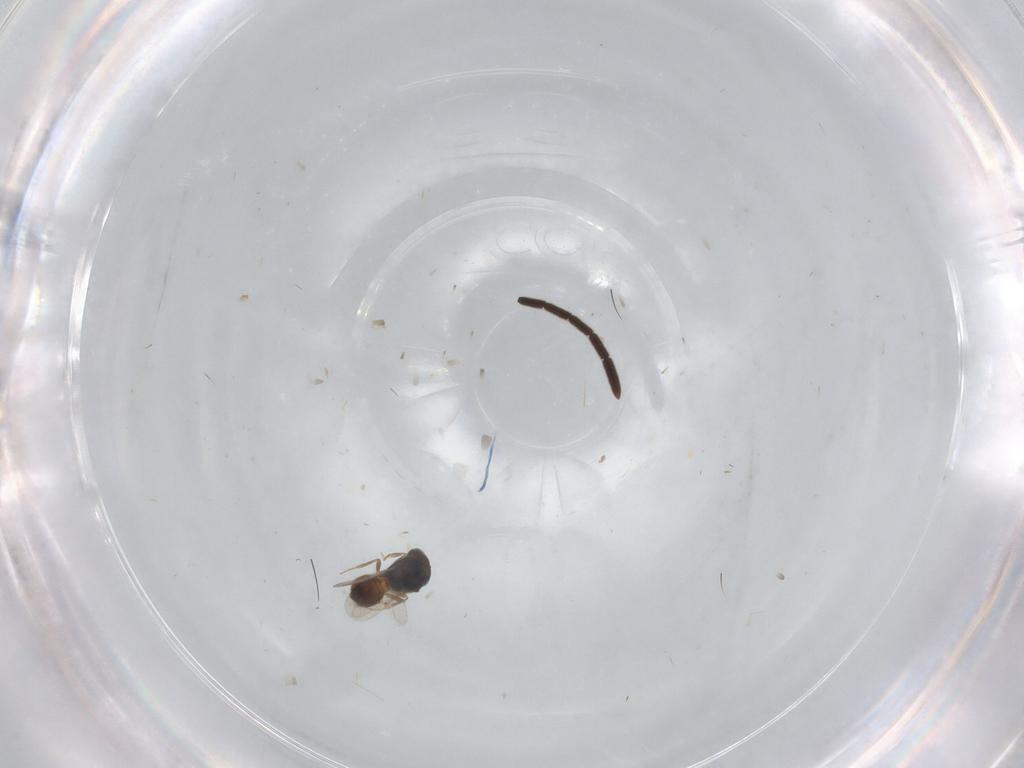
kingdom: Animalia
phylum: Arthropoda
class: Insecta
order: Hymenoptera
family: Scelionidae
